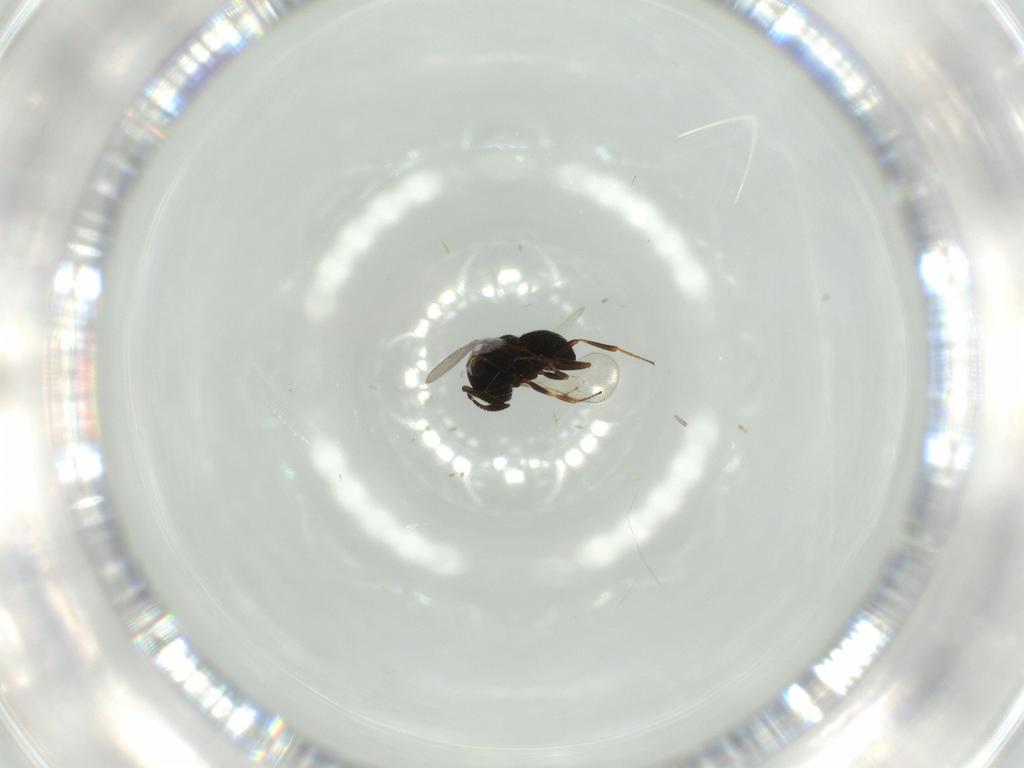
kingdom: Animalia
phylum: Arthropoda
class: Insecta
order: Hymenoptera
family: Scelionidae
